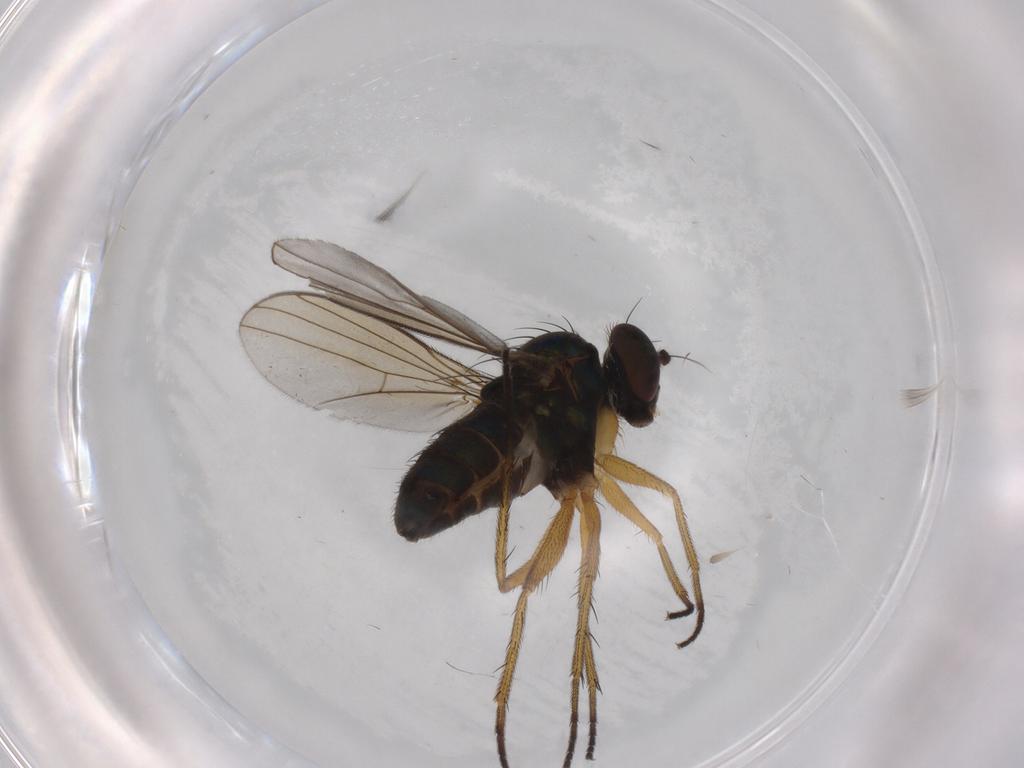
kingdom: Animalia
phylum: Arthropoda
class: Insecta
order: Diptera
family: Dolichopodidae
